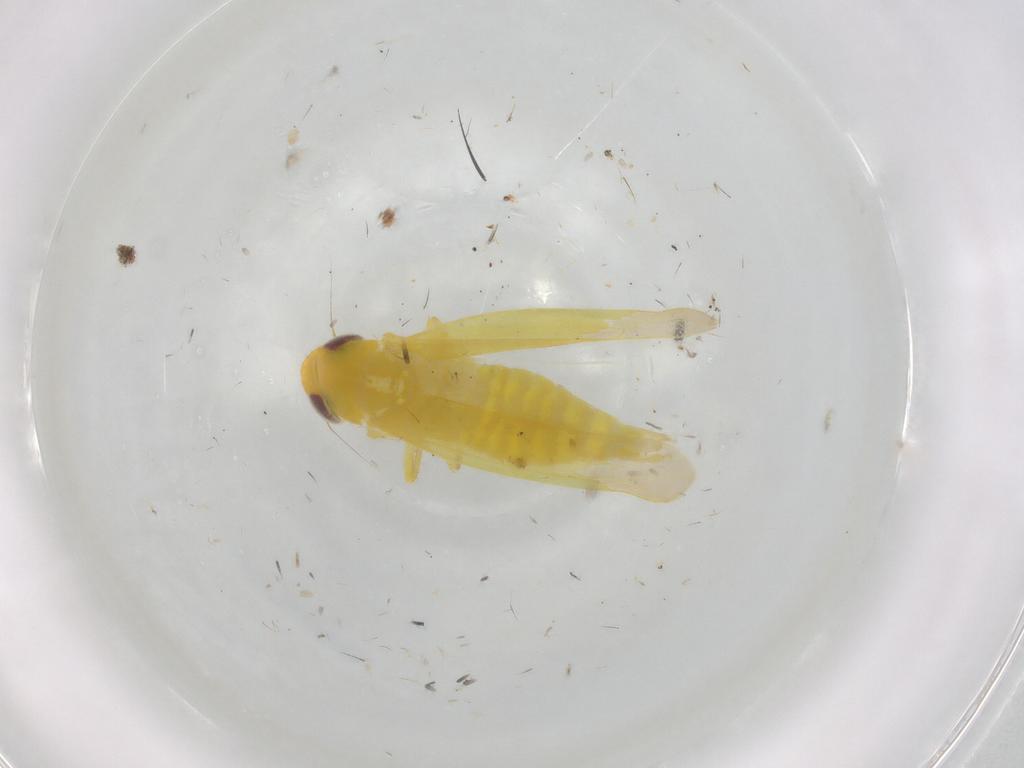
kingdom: Animalia
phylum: Arthropoda
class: Insecta
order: Hemiptera
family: Cicadellidae
